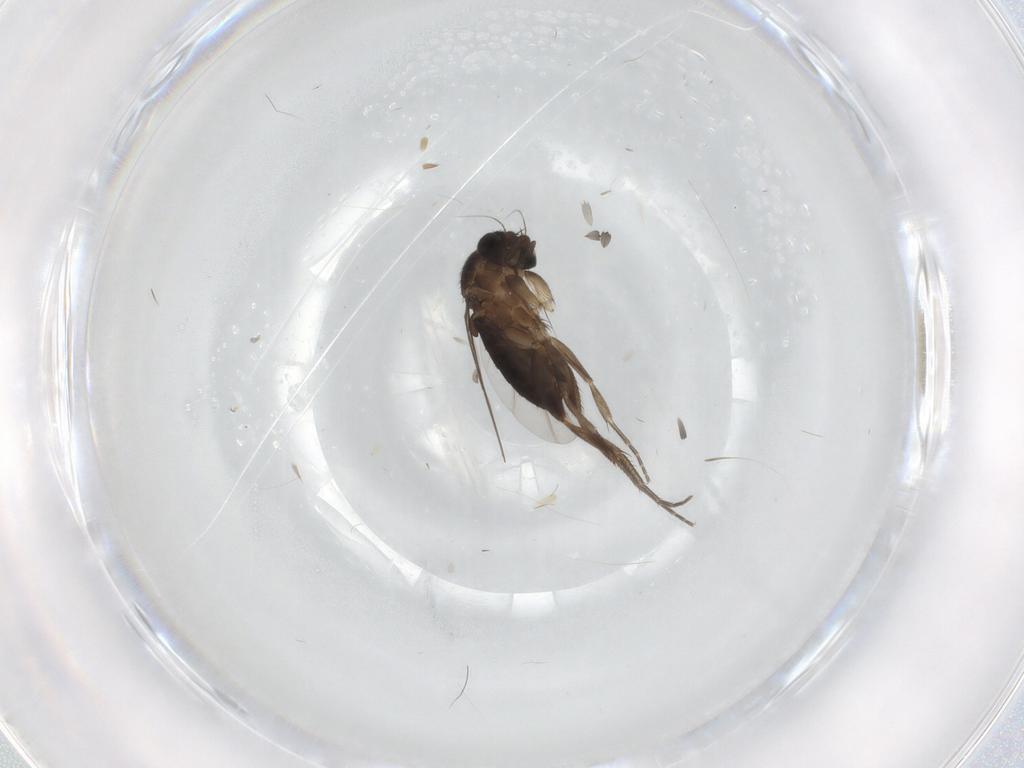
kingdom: Animalia
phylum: Arthropoda
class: Insecta
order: Diptera
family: Phoridae
